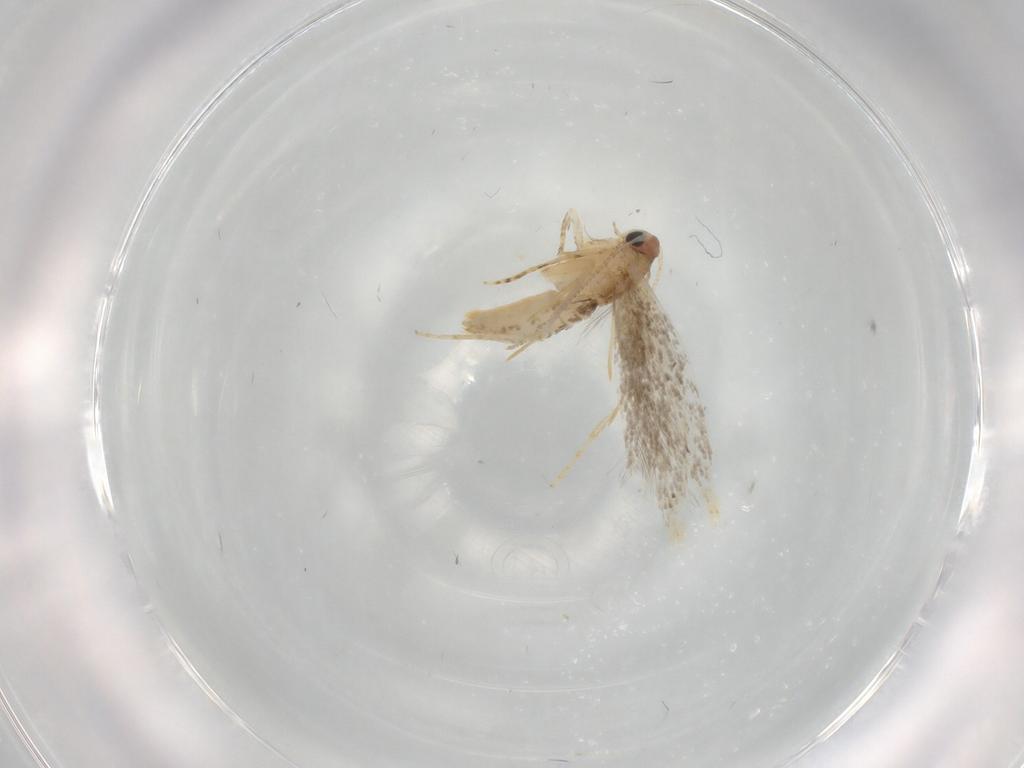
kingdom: Animalia
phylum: Arthropoda
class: Insecta
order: Lepidoptera
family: Tineidae
